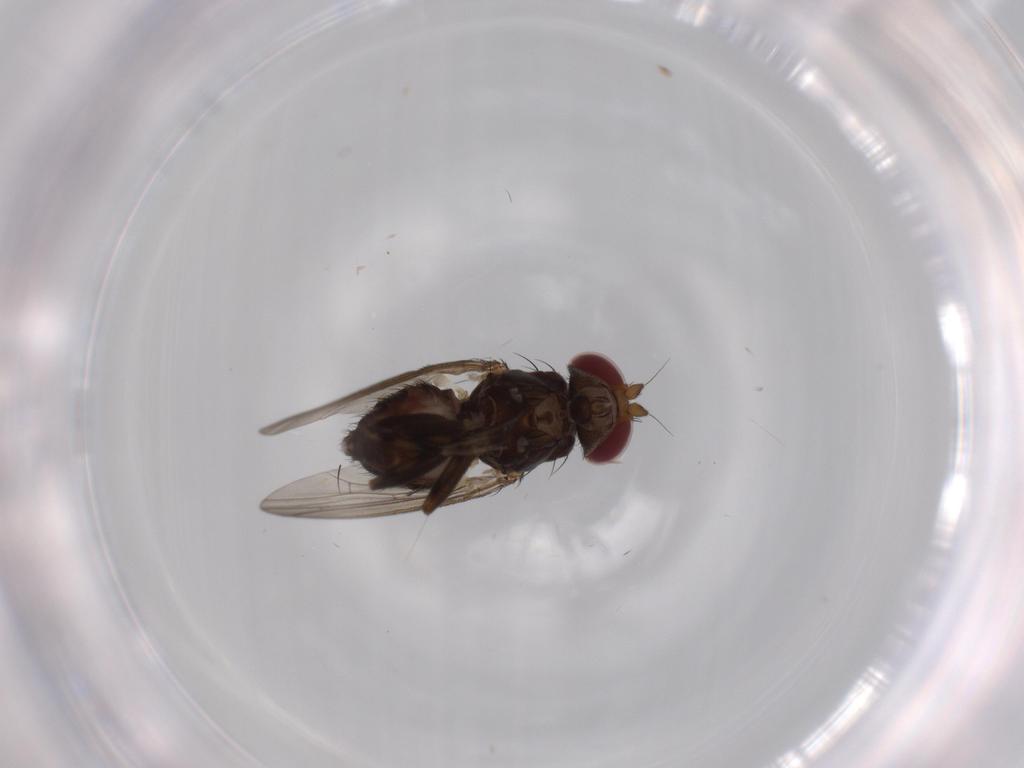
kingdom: Animalia
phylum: Arthropoda
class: Insecta
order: Diptera
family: Heleomyzidae
